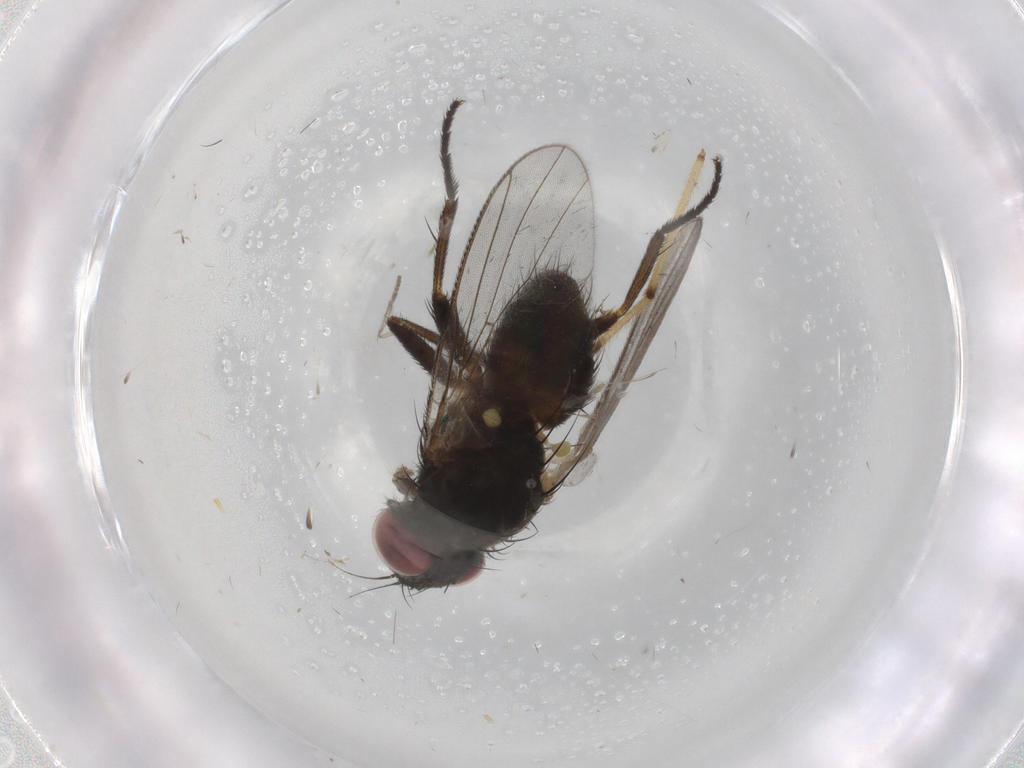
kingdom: Animalia
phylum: Arthropoda
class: Insecta
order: Diptera
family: Muscidae
